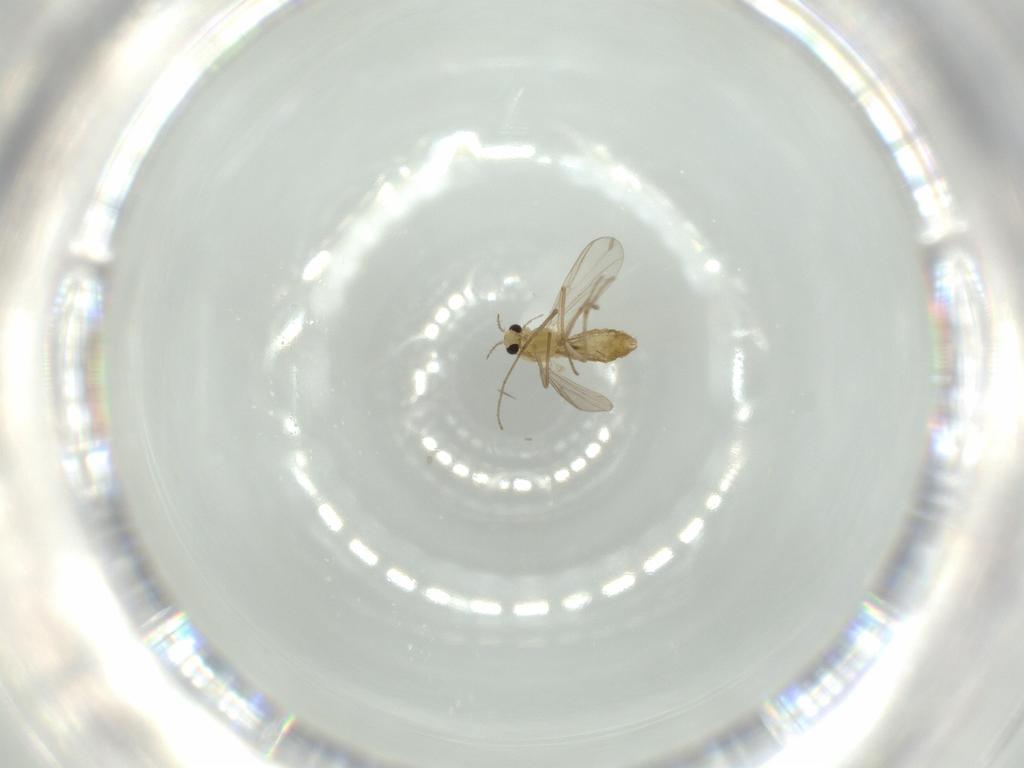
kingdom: Animalia
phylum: Arthropoda
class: Insecta
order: Diptera
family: Chironomidae
